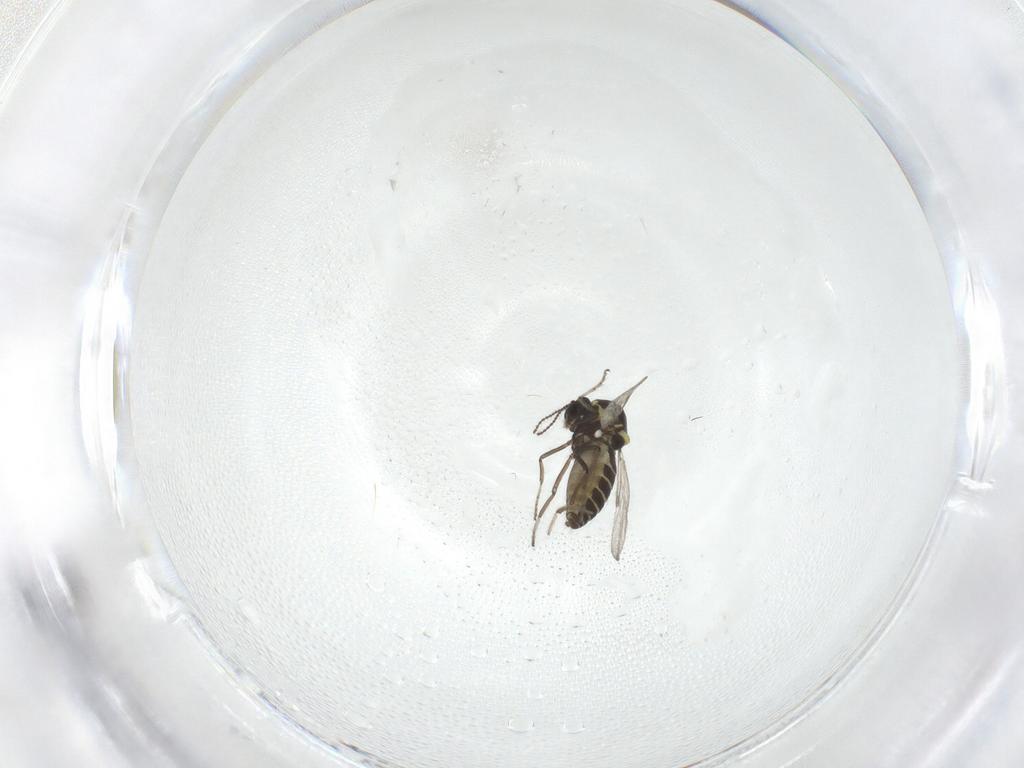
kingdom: Animalia
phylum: Arthropoda
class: Insecta
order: Diptera
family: Ceratopogonidae
